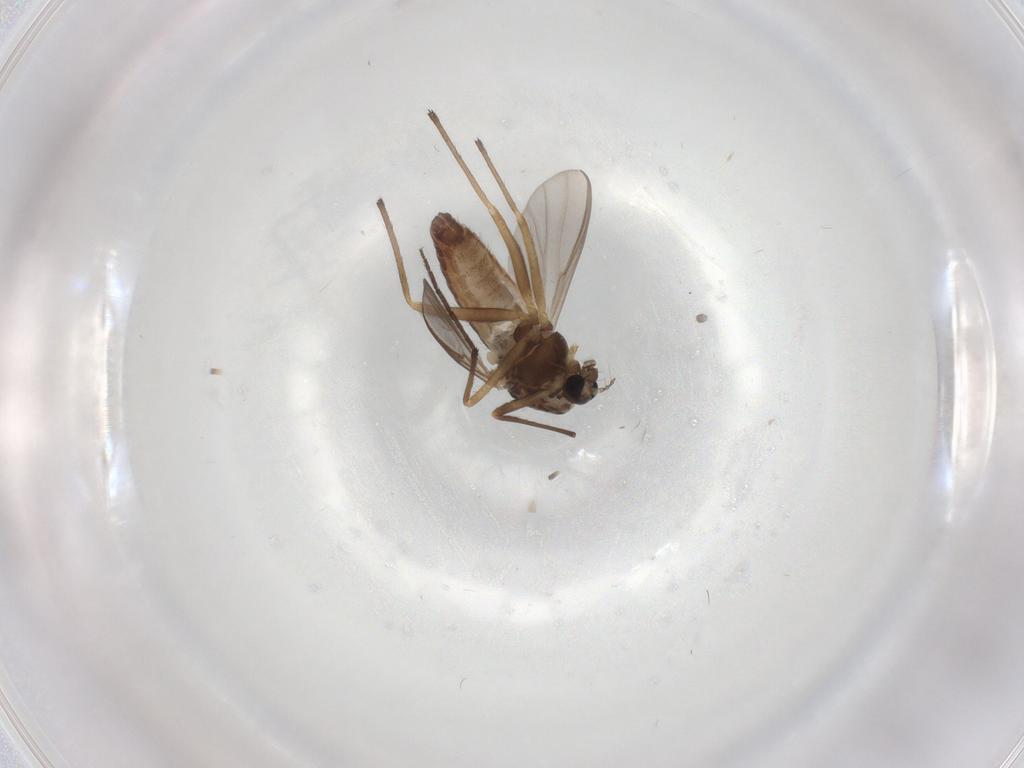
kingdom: Animalia
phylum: Arthropoda
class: Insecta
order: Diptera
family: Chironomidae
